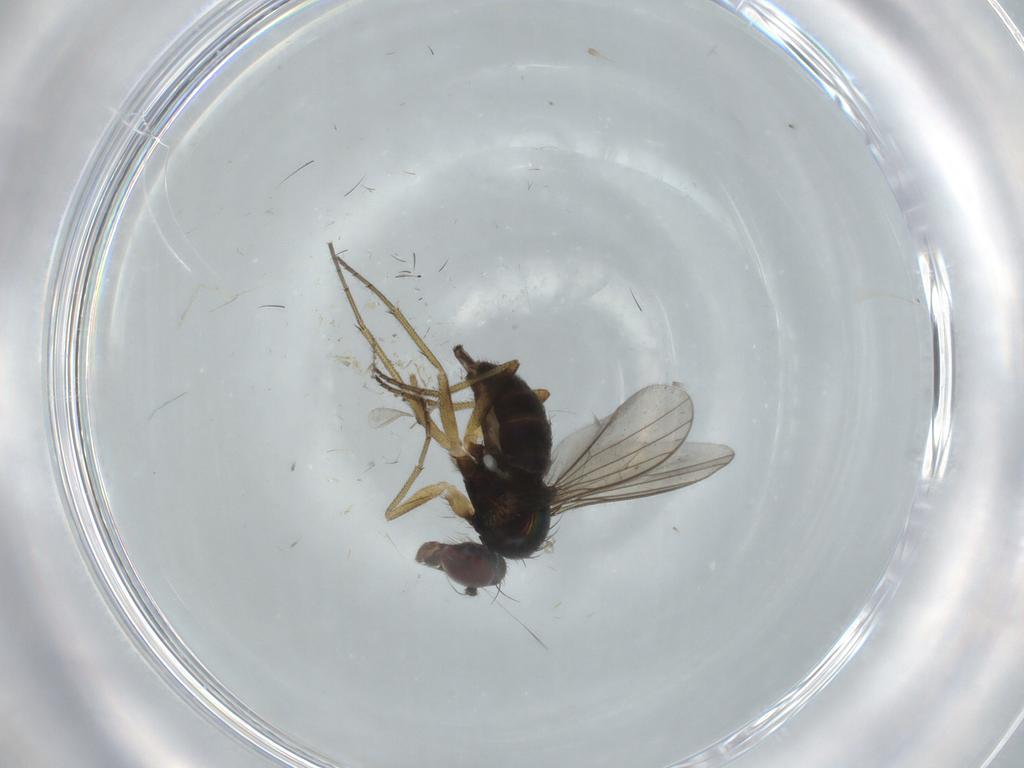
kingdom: Animalia
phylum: Arthropoda
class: Insecta
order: Diptera
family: Dolichopodidae
